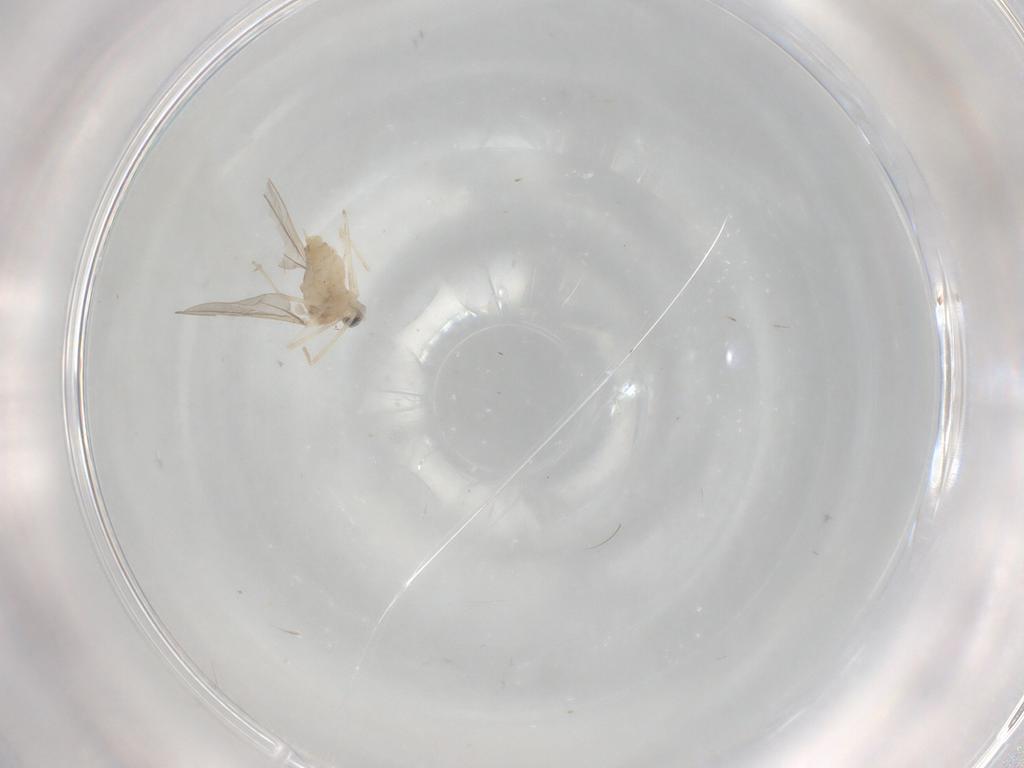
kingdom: Animalia
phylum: Arthropoda
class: Insecta
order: Diptera
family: Cecidomyiidae
